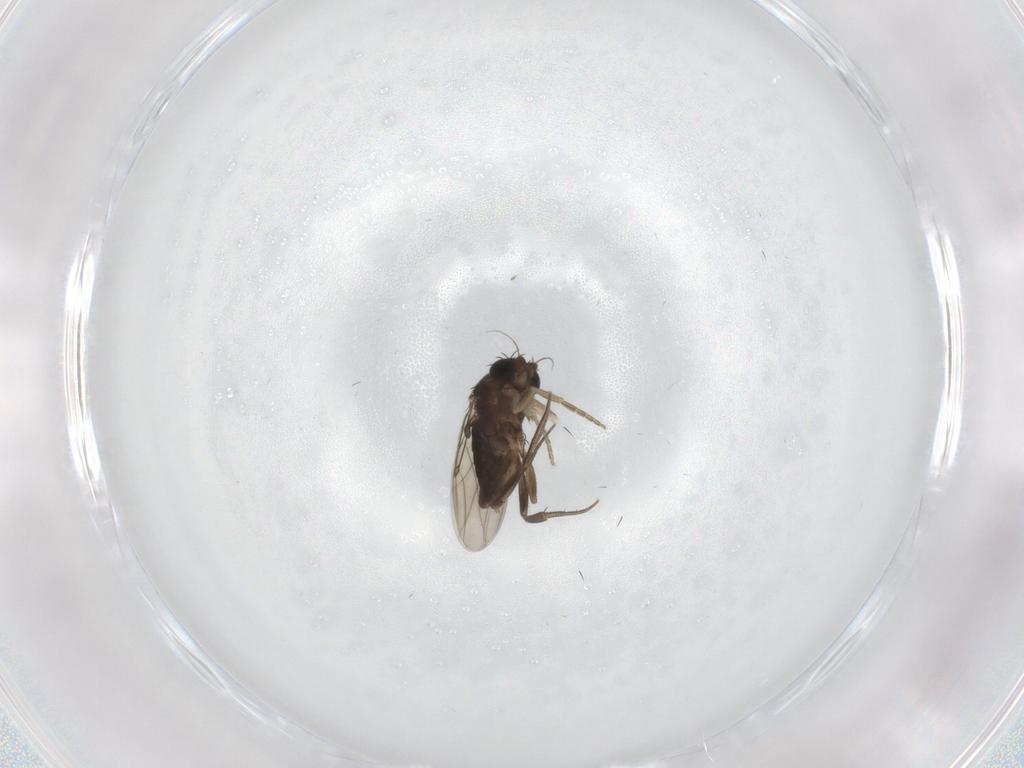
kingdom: Animalia
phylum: Arthropoda
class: Insecta
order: Diptera
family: Phoridae
